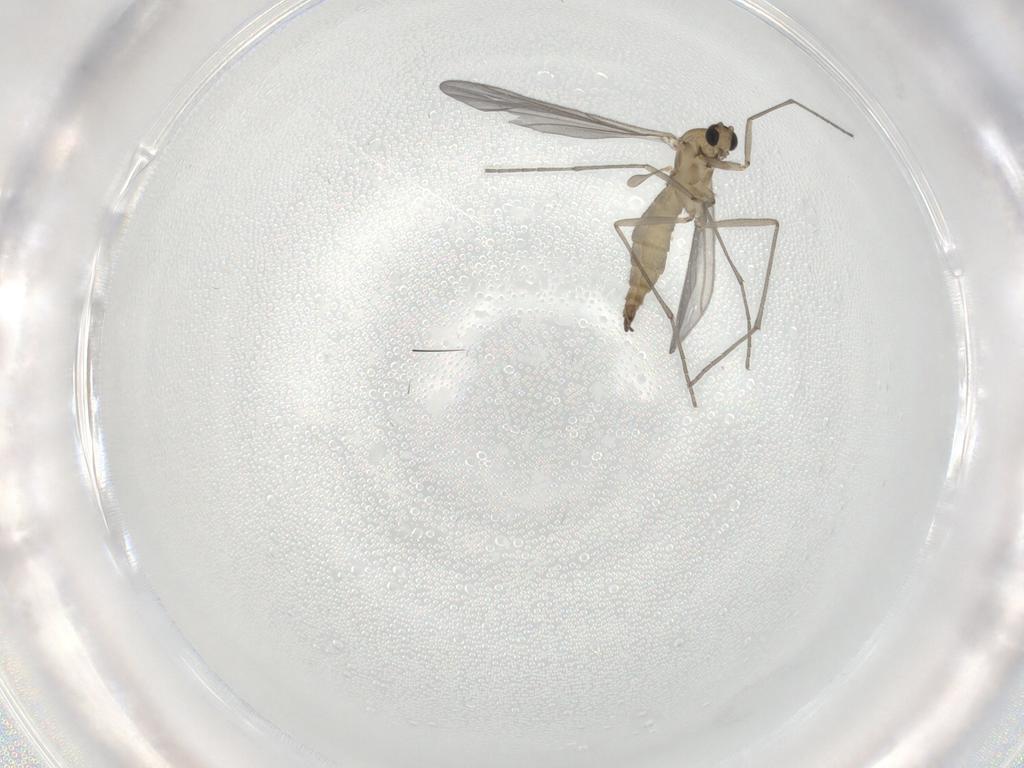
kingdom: Animalia
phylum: Arthropoda
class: Insecta
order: Diptera
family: Sciaridae
